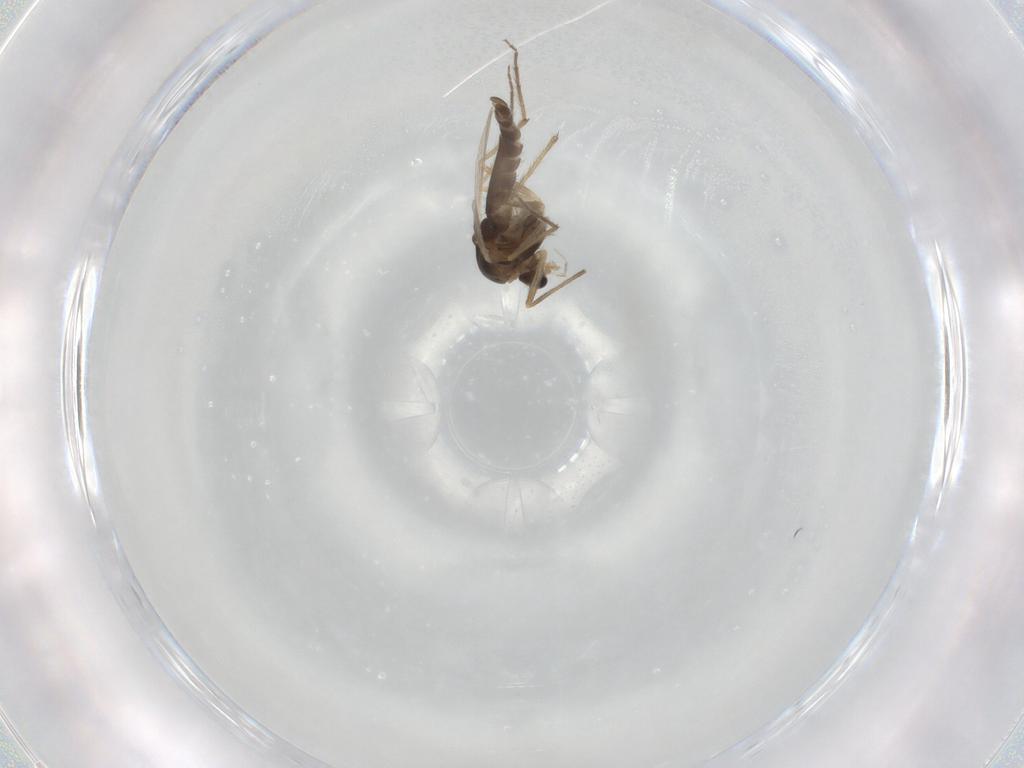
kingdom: Animalia
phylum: Arthropoda
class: Insecta
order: Diptera
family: Chironomidae
